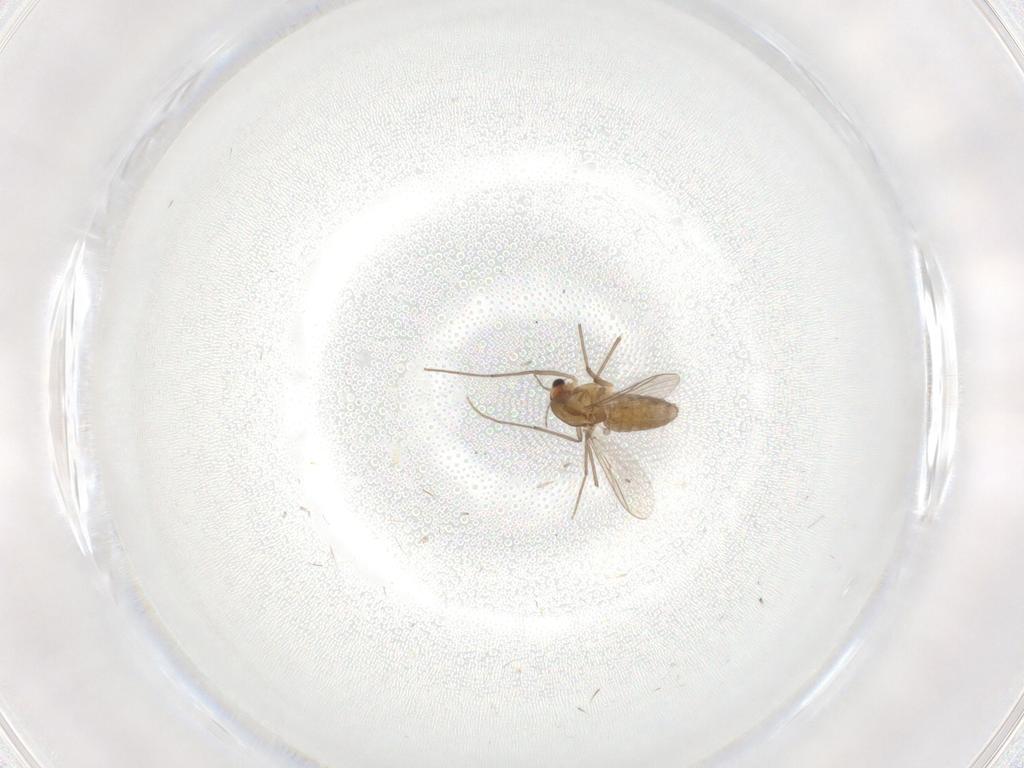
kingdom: Animalia
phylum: Arthropoda
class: Insecta
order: Diptera
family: Chironomidae
